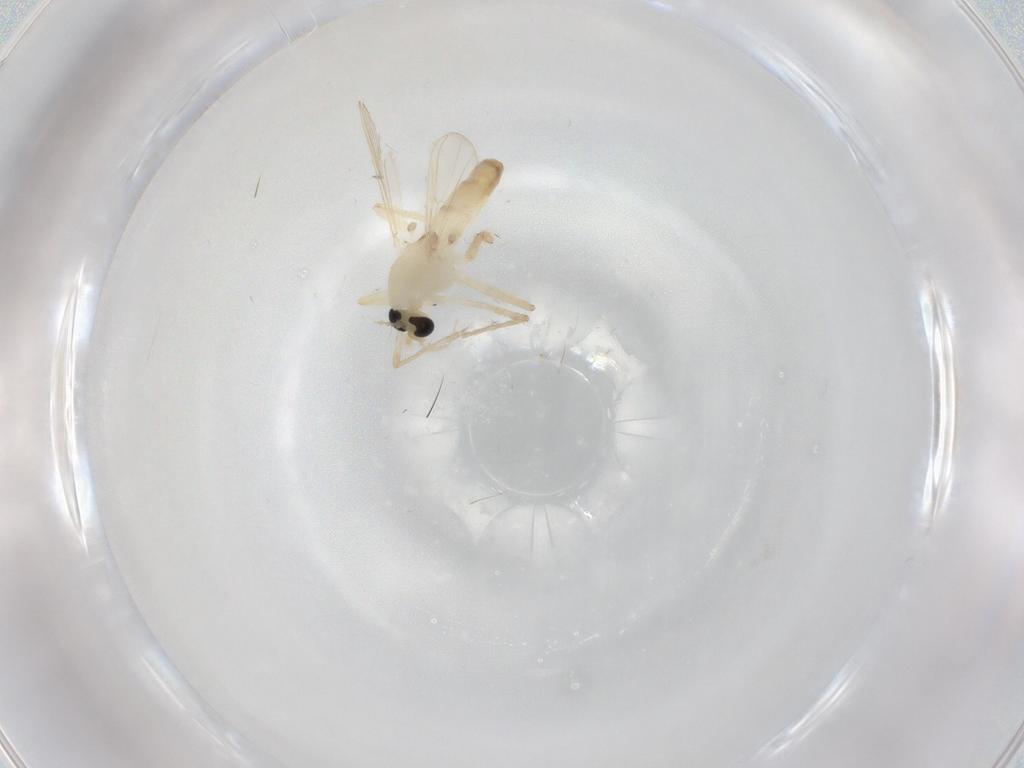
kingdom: Animalia
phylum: Arthropoda
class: Insecta
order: Diptera
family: Chironomidae
